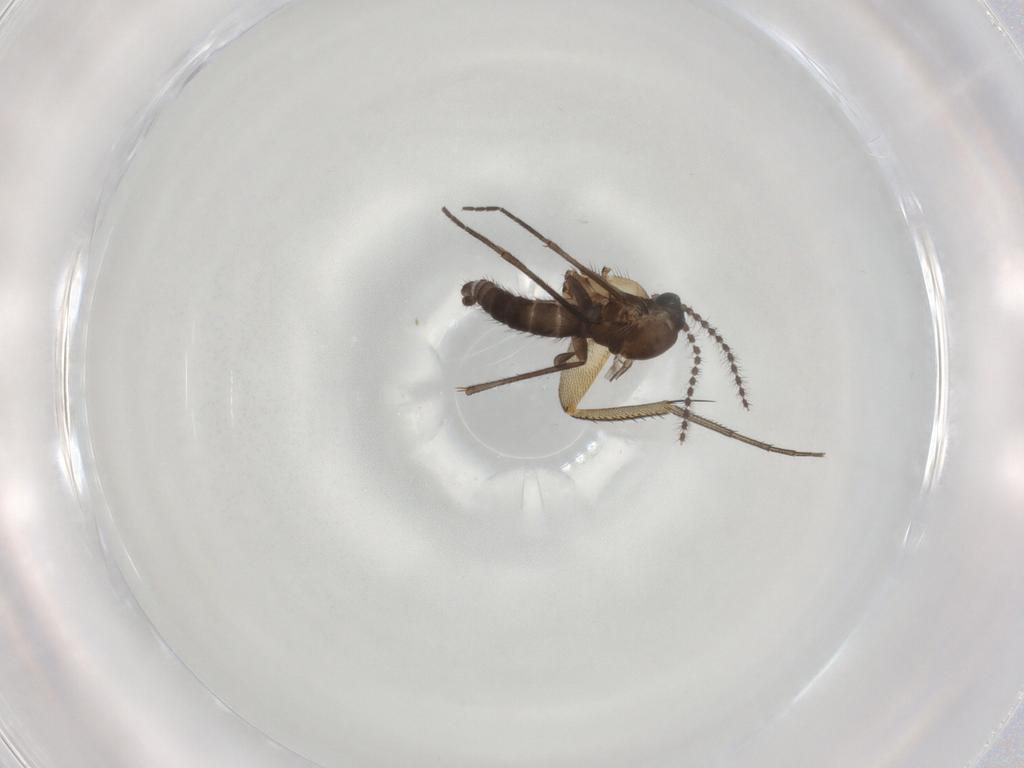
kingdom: Animalia
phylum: Arthropoda
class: Insecta
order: Diptera
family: Sciaridae
